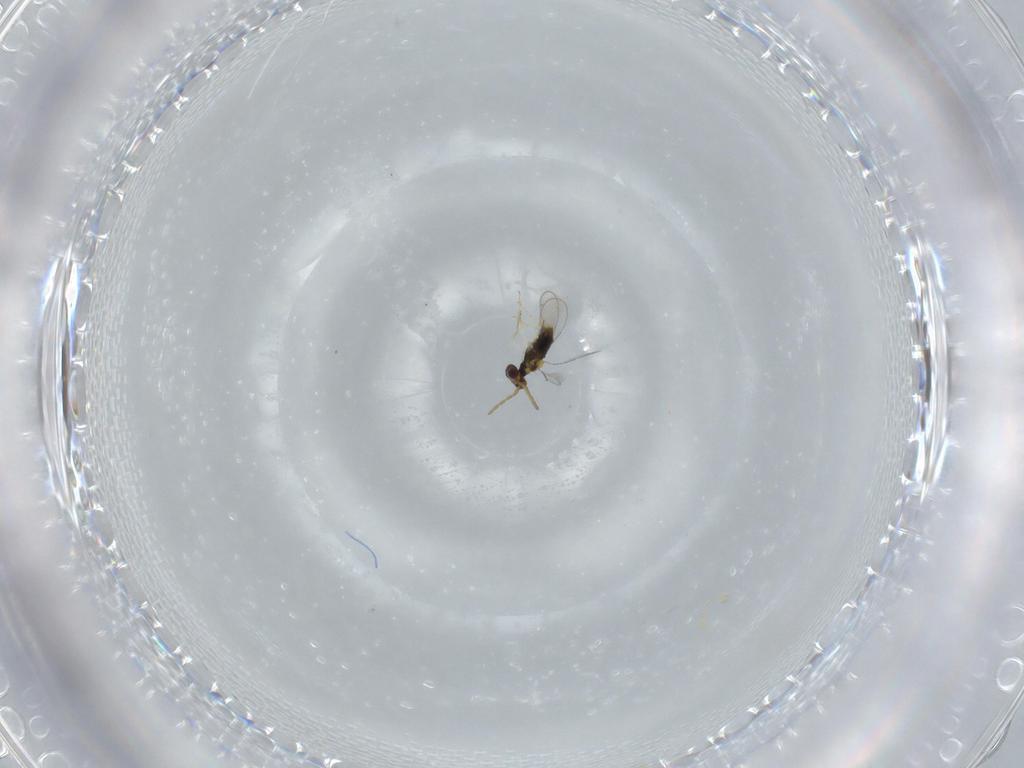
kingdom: Animalia
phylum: Arthropoda
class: Insecta
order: Hymenoptera
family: Aphelinidae
